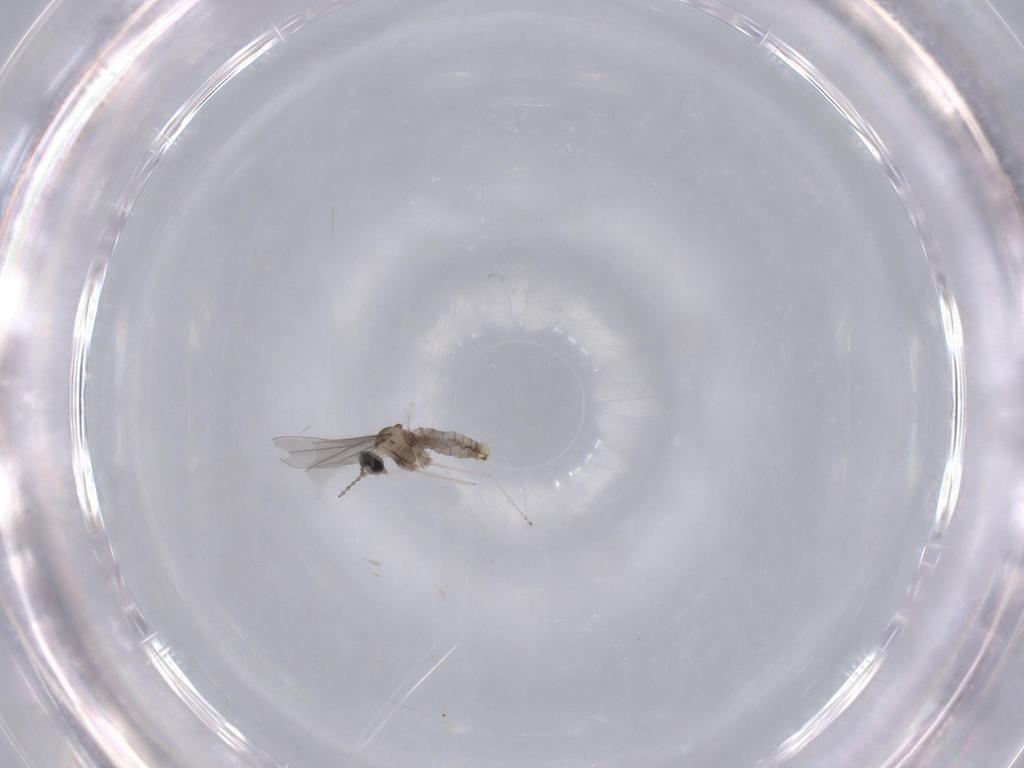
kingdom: Animalia
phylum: Arthropoda
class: Insecta
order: Diptera
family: Cecidomyiidae
